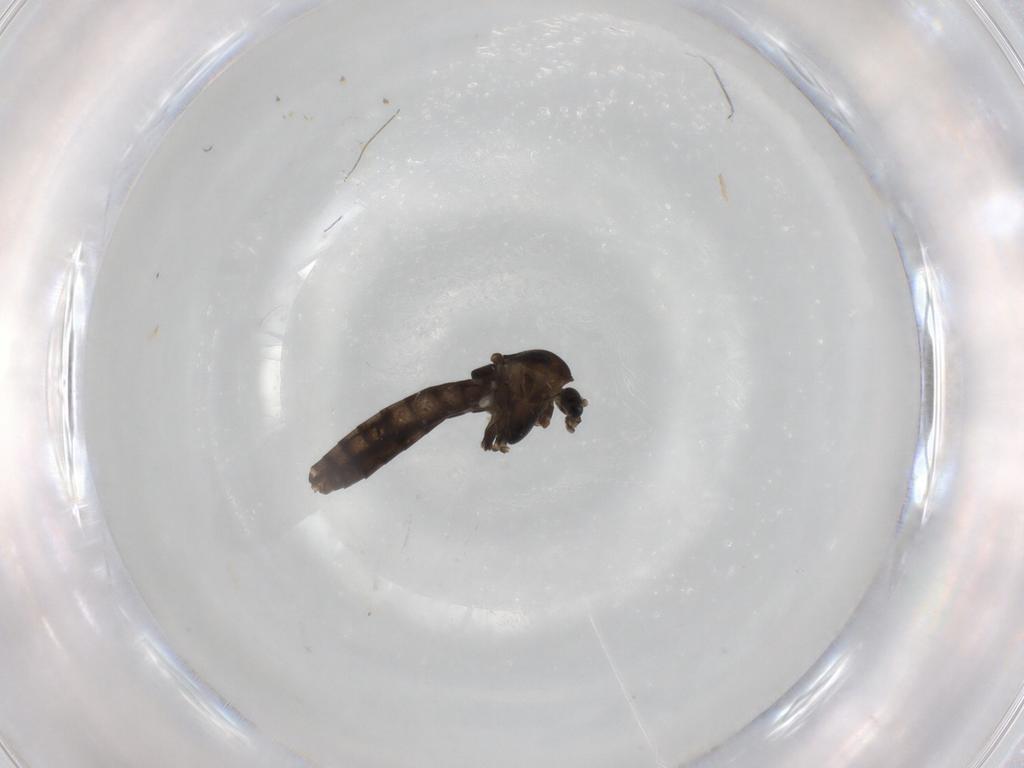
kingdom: Animalia
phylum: Arthropoda
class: Insecta
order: Diptera
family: Chironomidae
